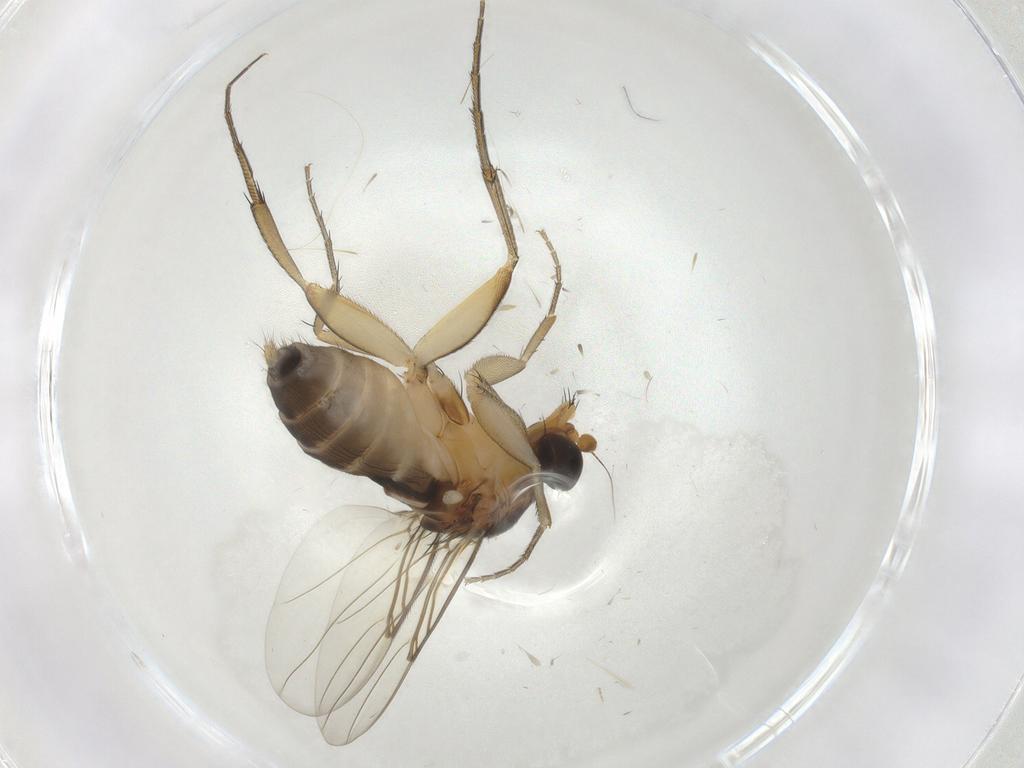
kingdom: Animalia
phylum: Arthropoda
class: Insecta
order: Diptera
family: Phoridae
